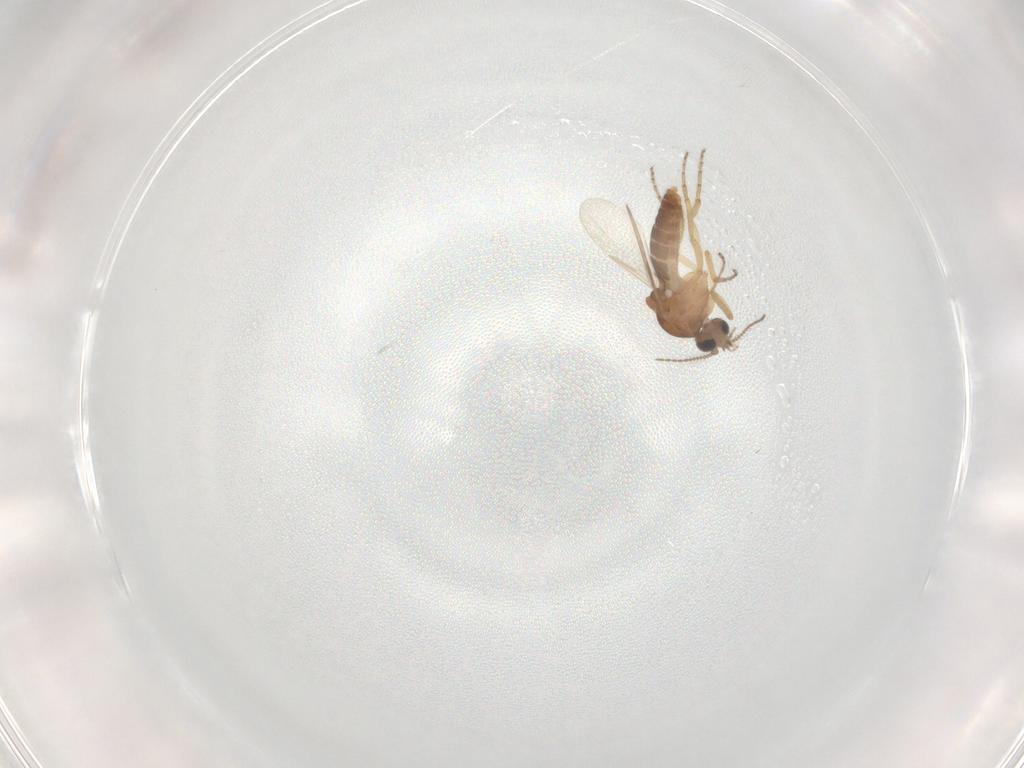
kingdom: Animalia
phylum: Arthropoda
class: Insecta
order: Diptera
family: Ceratopogonidae
